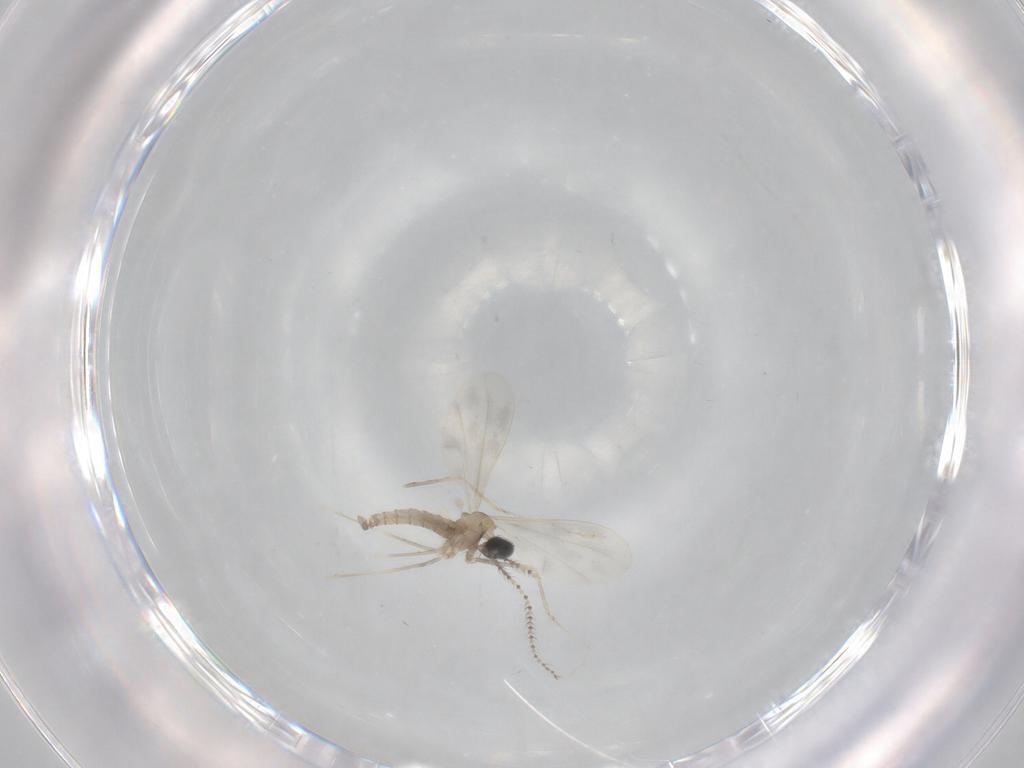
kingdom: Animalia
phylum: Arthropoda
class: Insecta
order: Diptera
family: Cecidomyiidae
